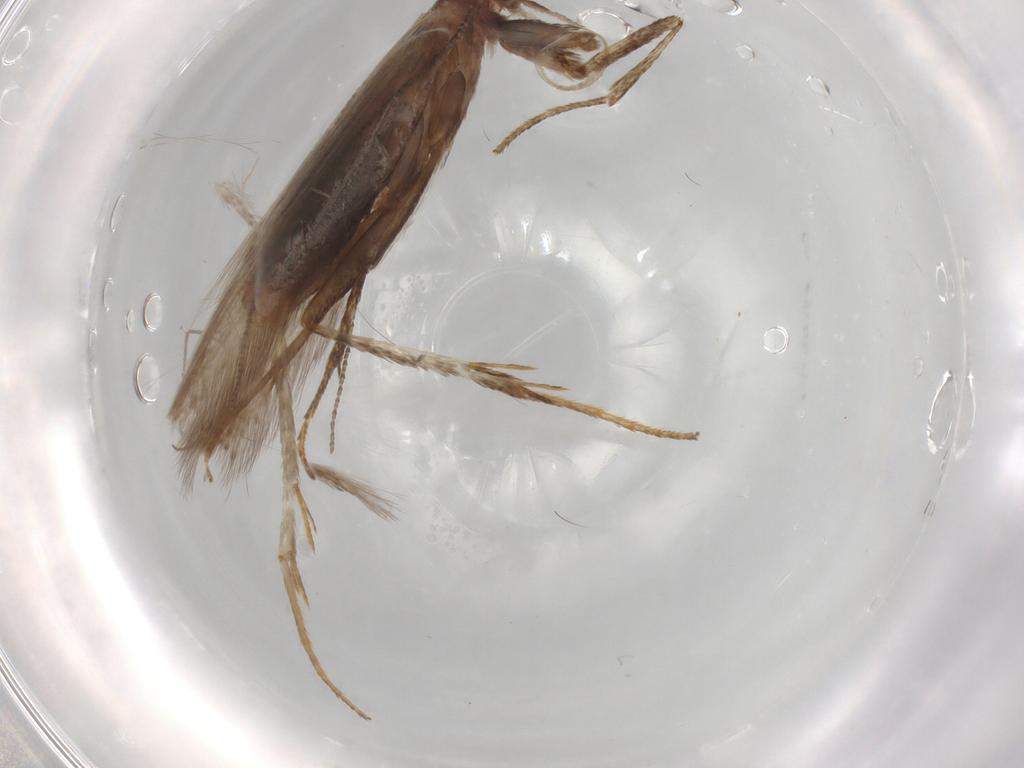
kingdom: Animalia
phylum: Arthropoda
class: Insecta
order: Lepidoptera
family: Erebidae
